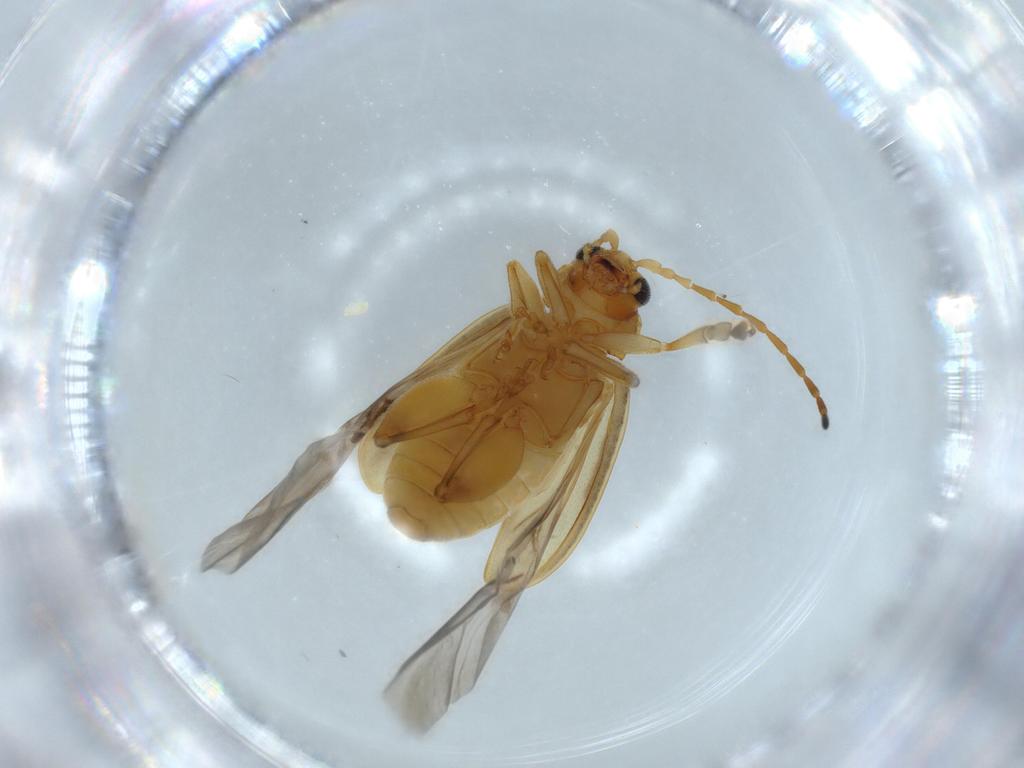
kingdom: Animalia
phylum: Arthropoda
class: Insecta
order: Coleoptera
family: Chrysomelidae
